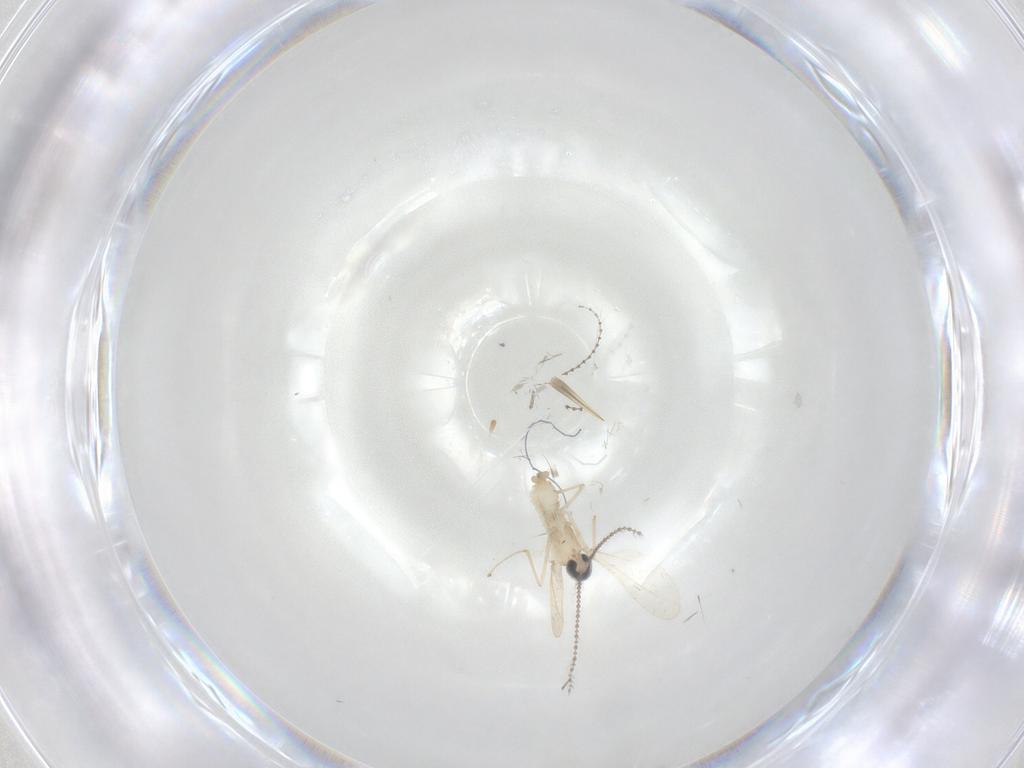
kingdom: Animalia
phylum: Arthropoda
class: Insecta
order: Diptera
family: Cecidomyiidae
